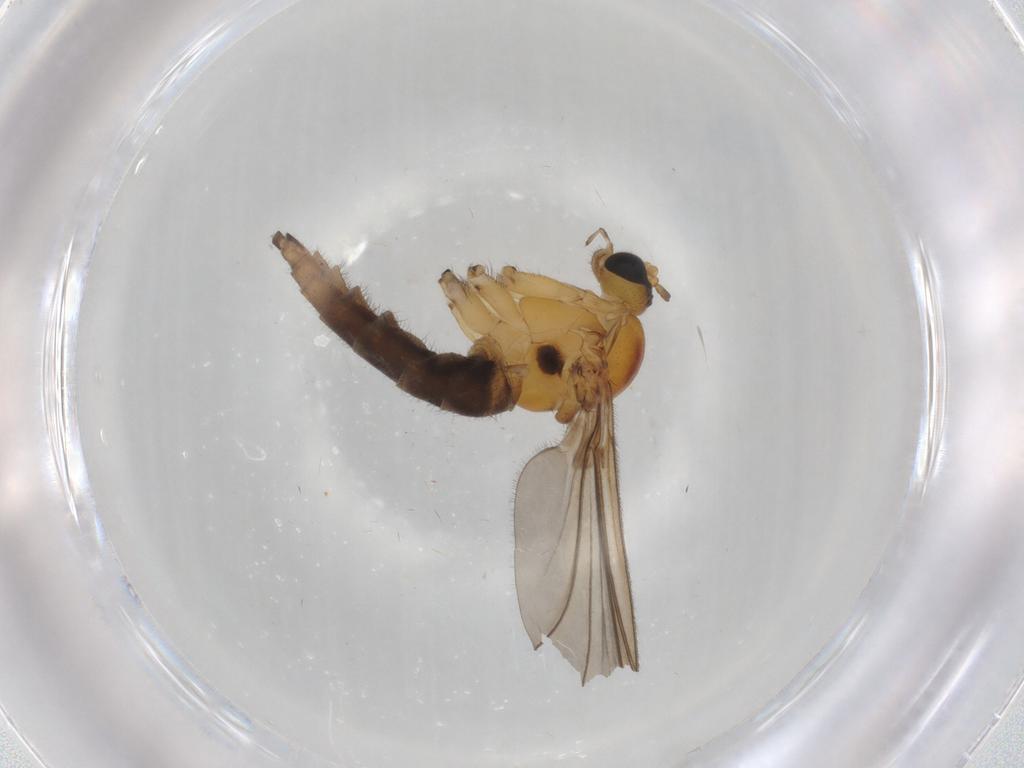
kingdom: Animalia
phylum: Arthropoda
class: Insecta
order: Diptera
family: Sciaridae
